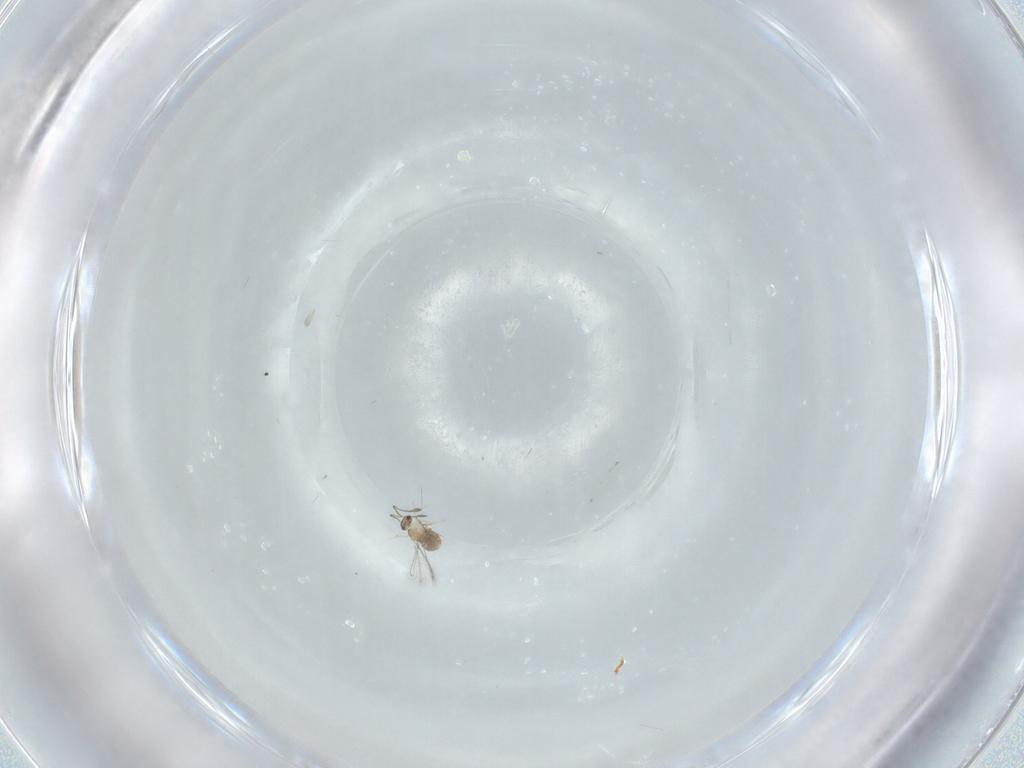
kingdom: Animalia
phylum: Arthropoda
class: Insecta
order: Hymenoptera
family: Mymaridae
